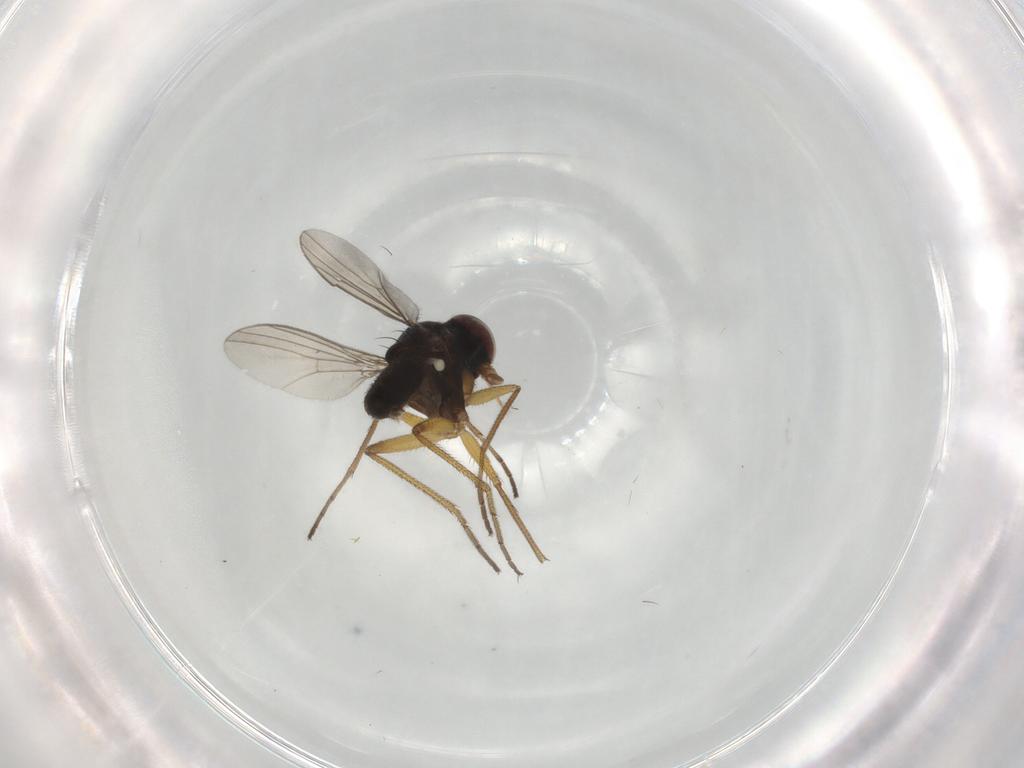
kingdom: Animalia
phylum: Arthropoda
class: Insecta
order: Diptera
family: Dolichopodidae
